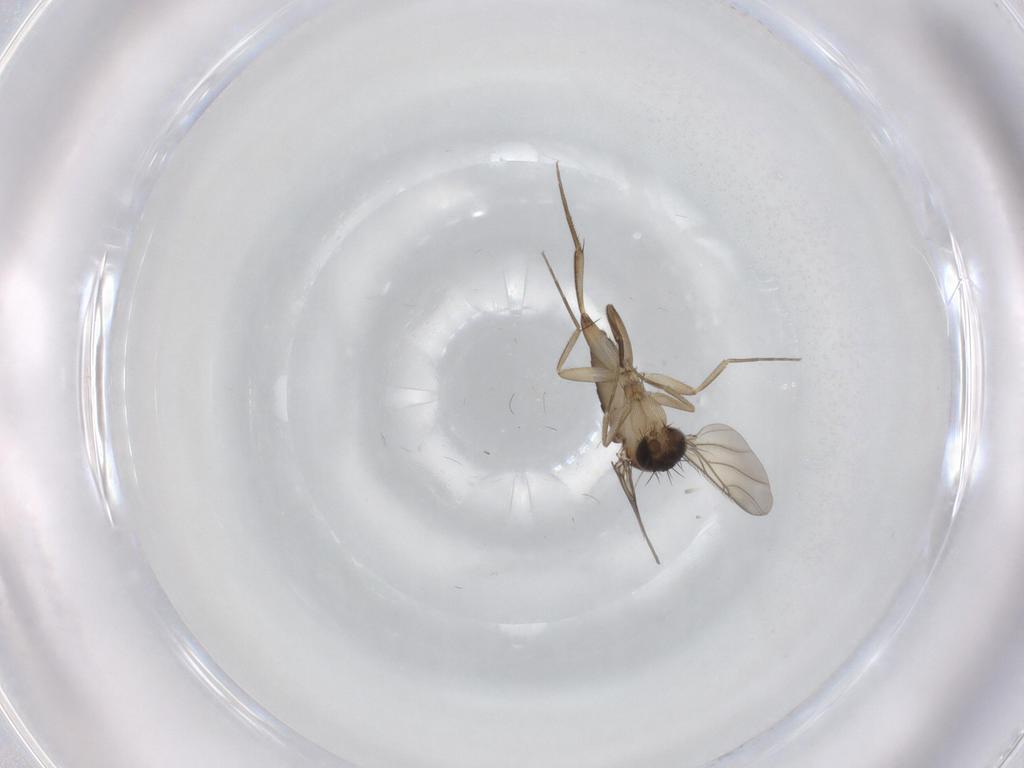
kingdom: Animalia
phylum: Arthropoda
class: Insecta
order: Diptera
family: Phoridae
